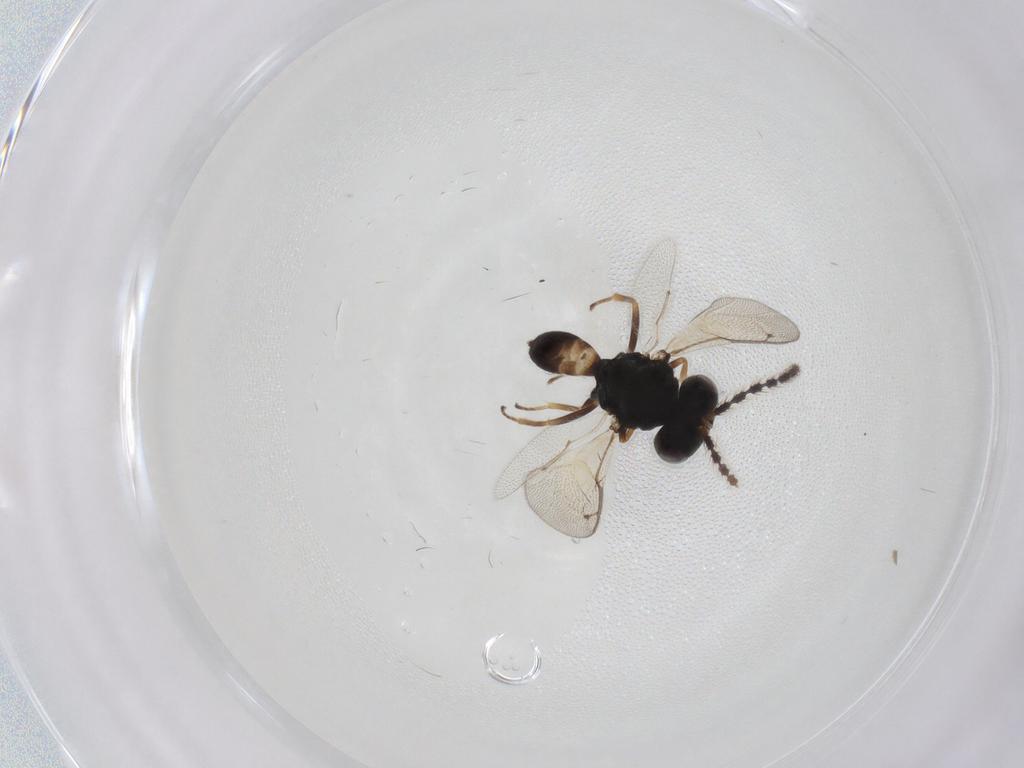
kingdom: Animalia
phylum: Arthropoda
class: Insecta
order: Hymenoptera
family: Pteromalidae
